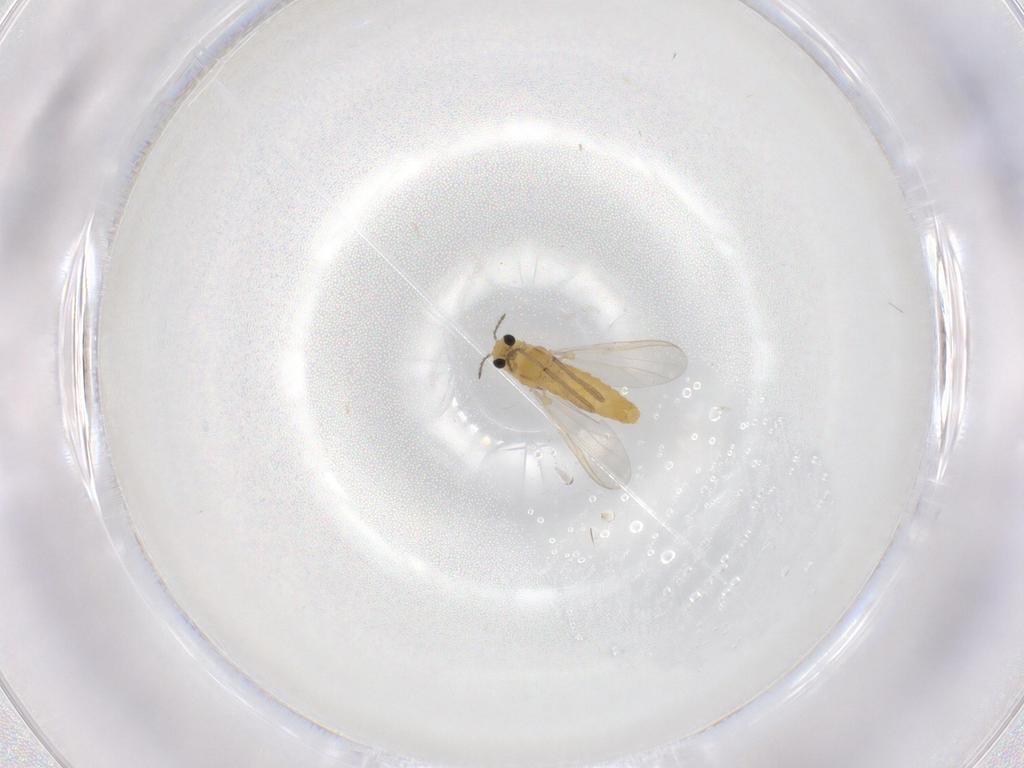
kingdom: Animalia
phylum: Arthropoda
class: Insecta
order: Diptera
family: Chironomidae
